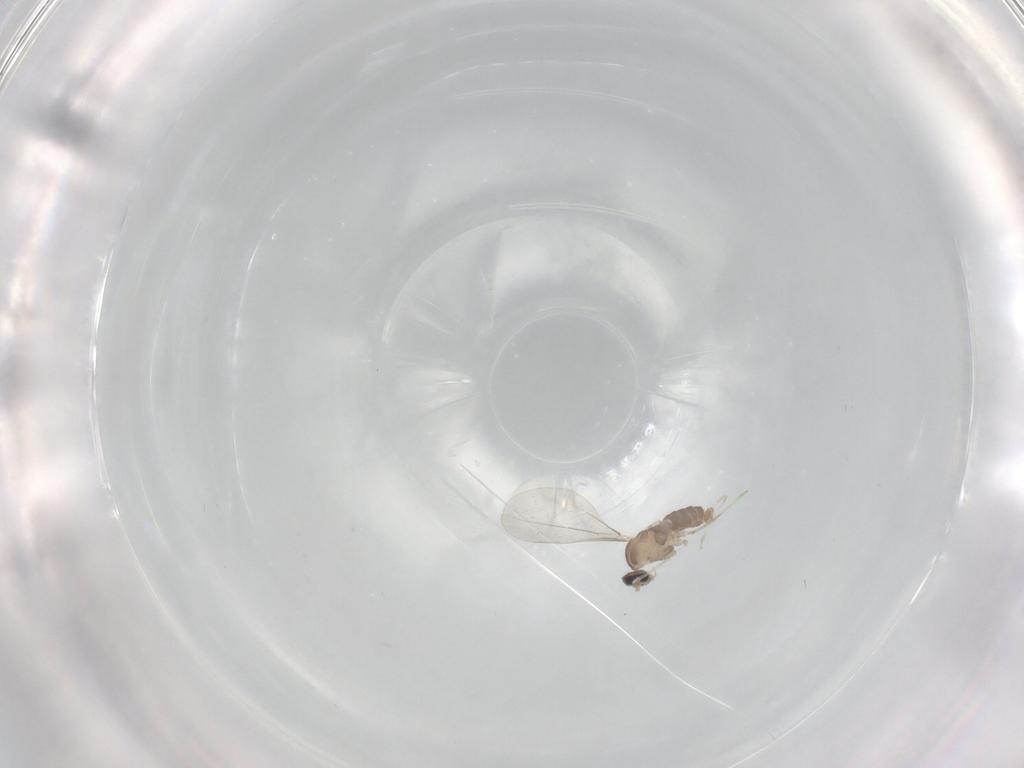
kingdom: Animalia
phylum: Arthropoda
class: Insecta
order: Diptera
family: Cecidomyiidae
